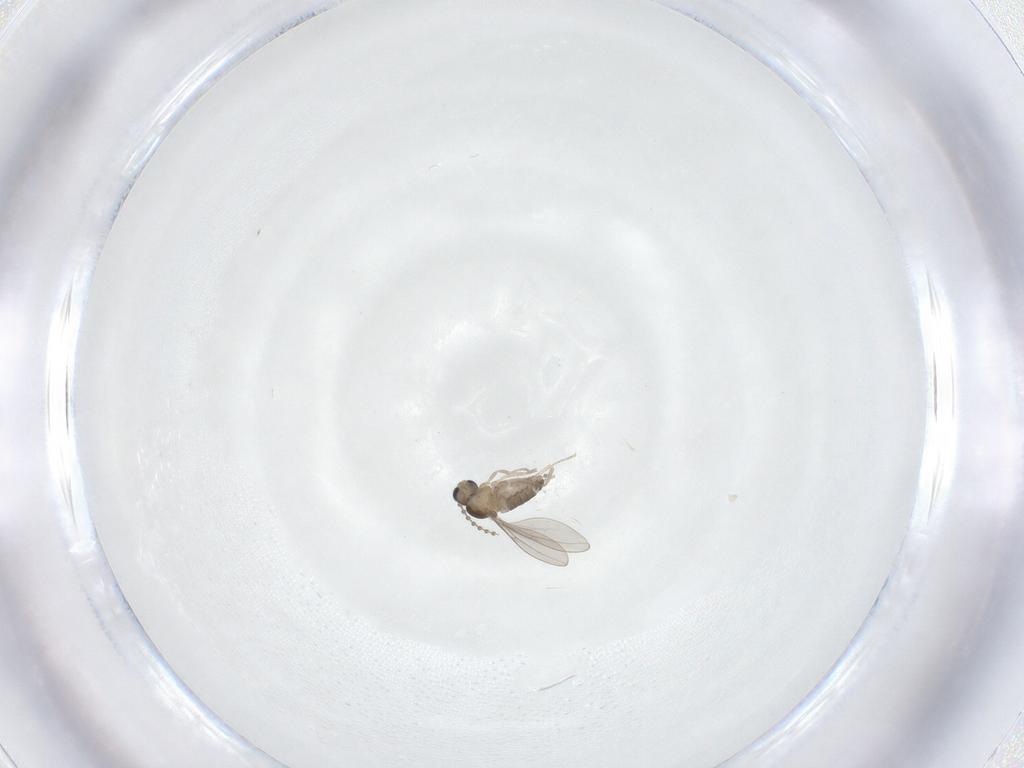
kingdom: Animalia
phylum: Arthropoda
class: Insecta
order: Diptera
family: Cecidomyiidae
